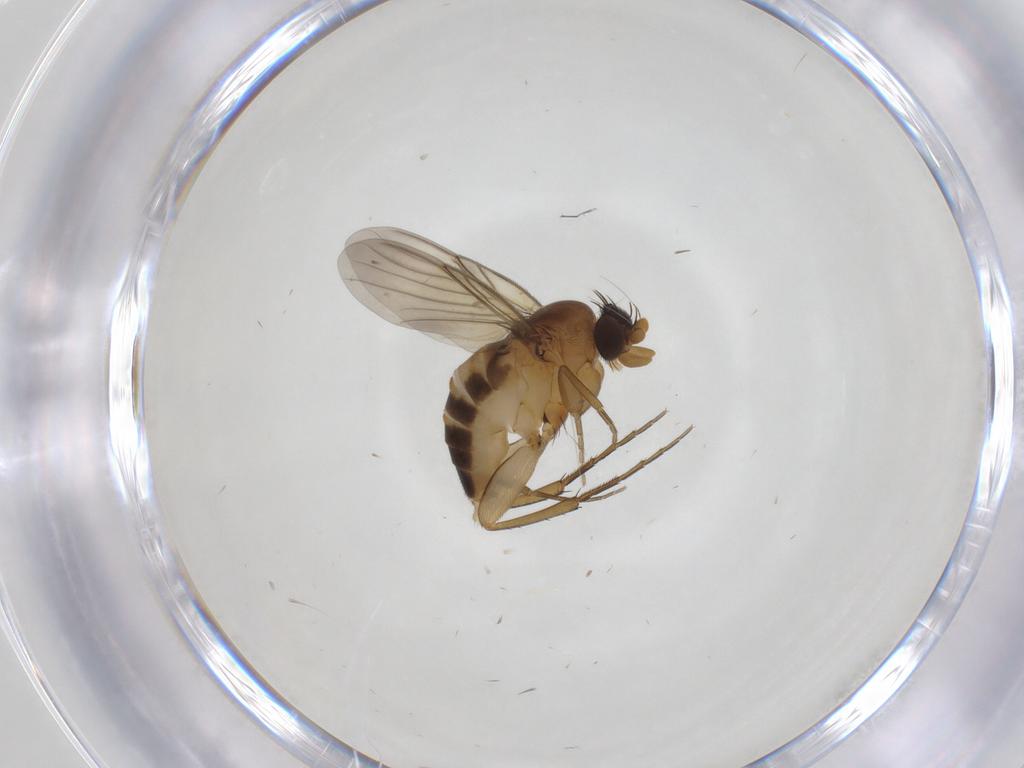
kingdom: Animalia
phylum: Arthropoda
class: Insecta
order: Diptera
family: Phoridae
